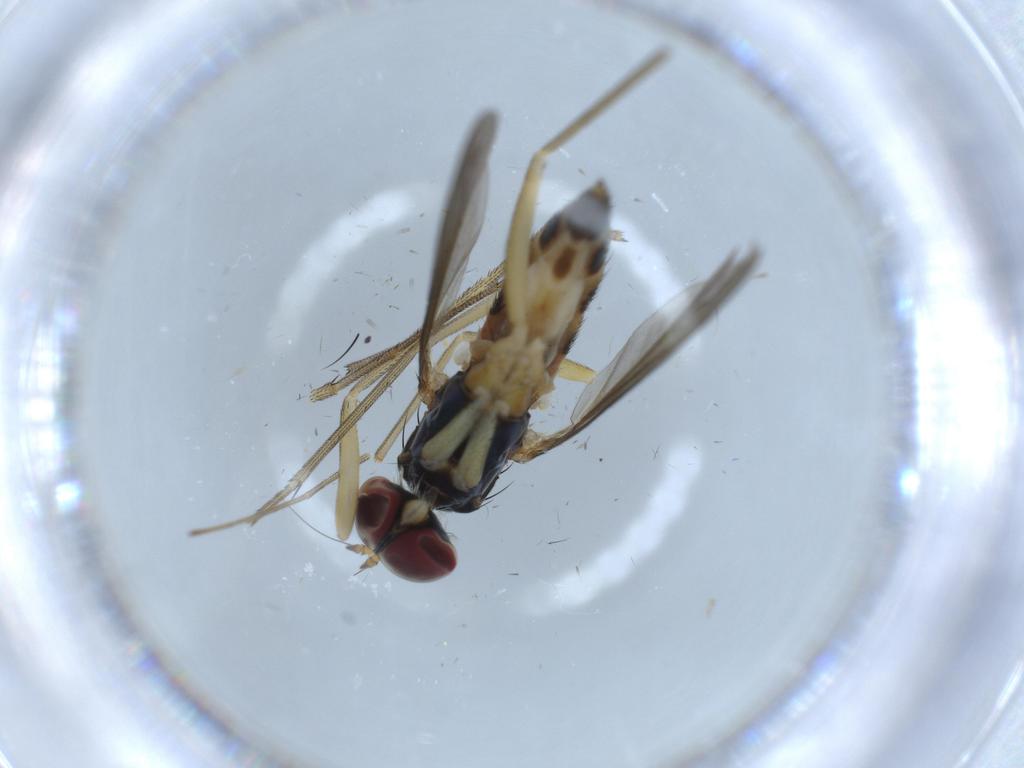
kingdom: Animalia
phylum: Arthropoda
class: Insecta
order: Diptera
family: Dolichopodidae
